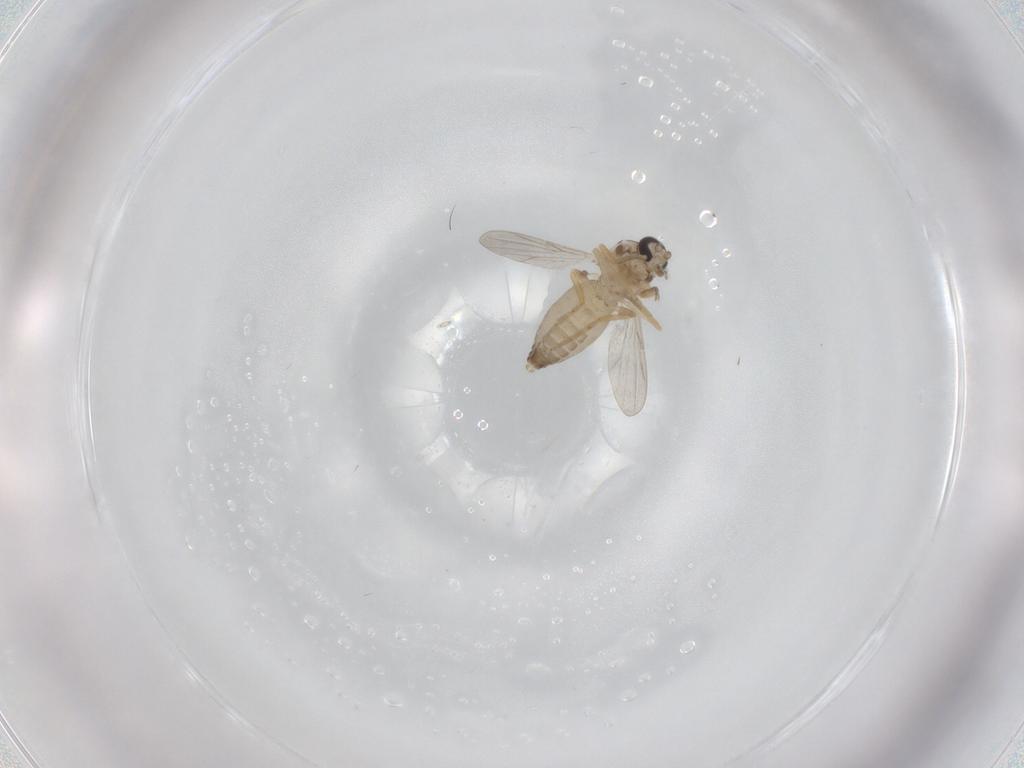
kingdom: Animalia
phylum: Arthropoda
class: Insecta
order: Diptera
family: Ceratopogonidae
